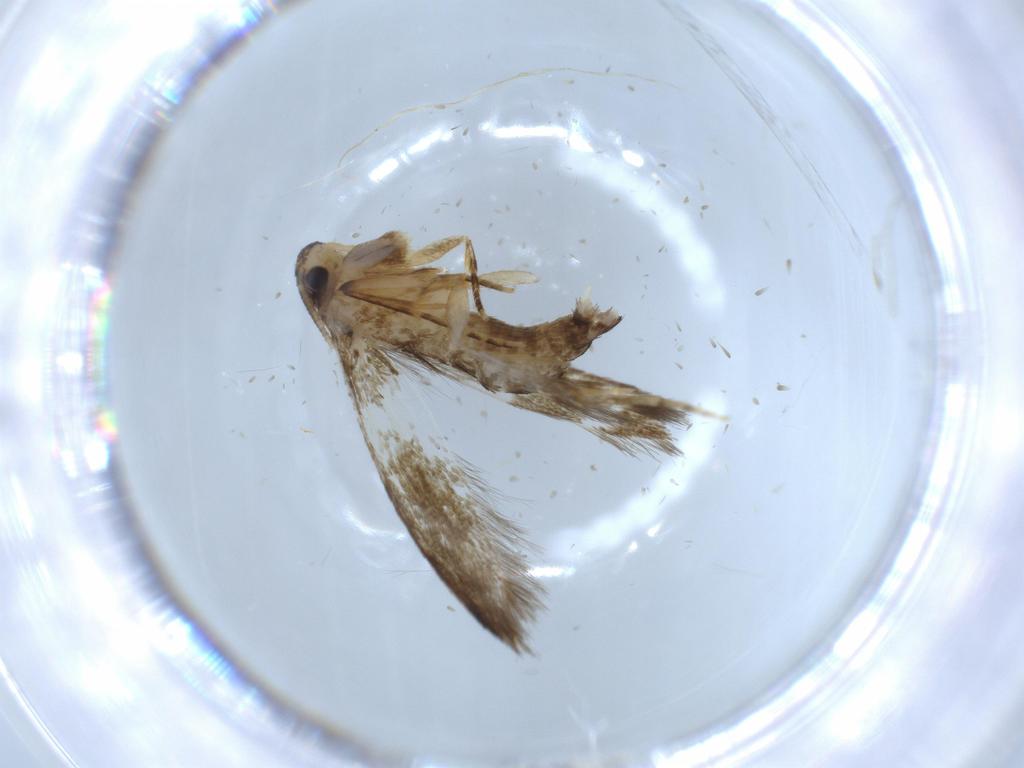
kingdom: Animalia
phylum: Arthropoda
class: Insecta
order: Lepidoptera
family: Tineidae
